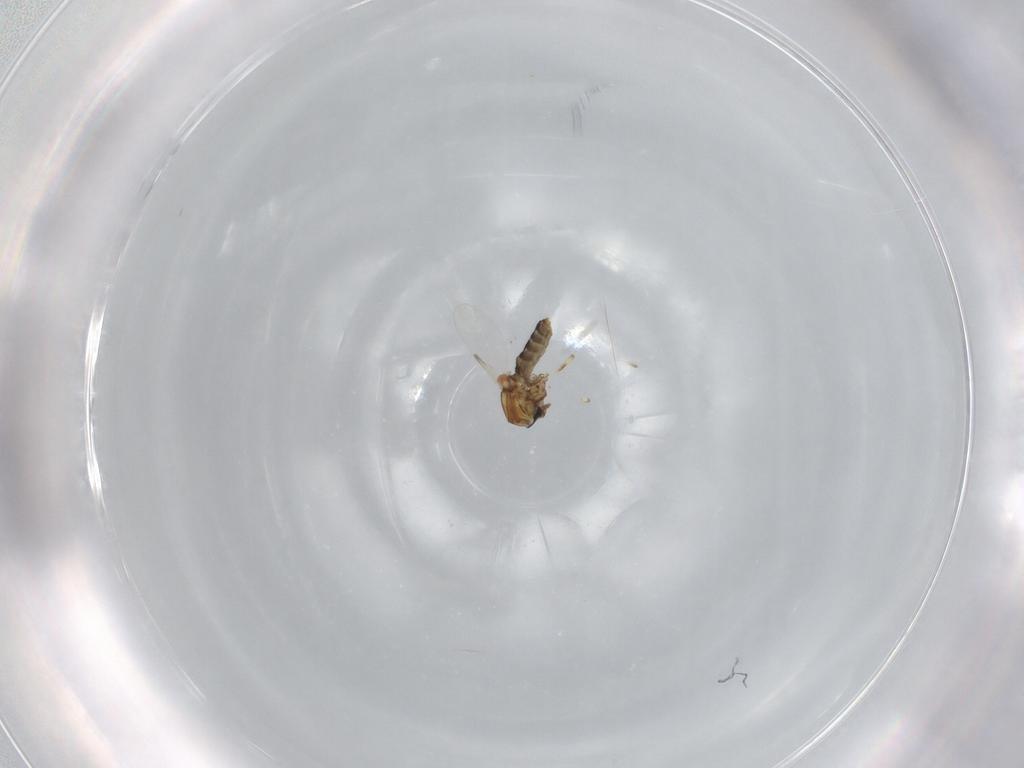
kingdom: Animalia
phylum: Arthropoda
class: Insecta
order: Diptera
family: Ceratopogonidae
